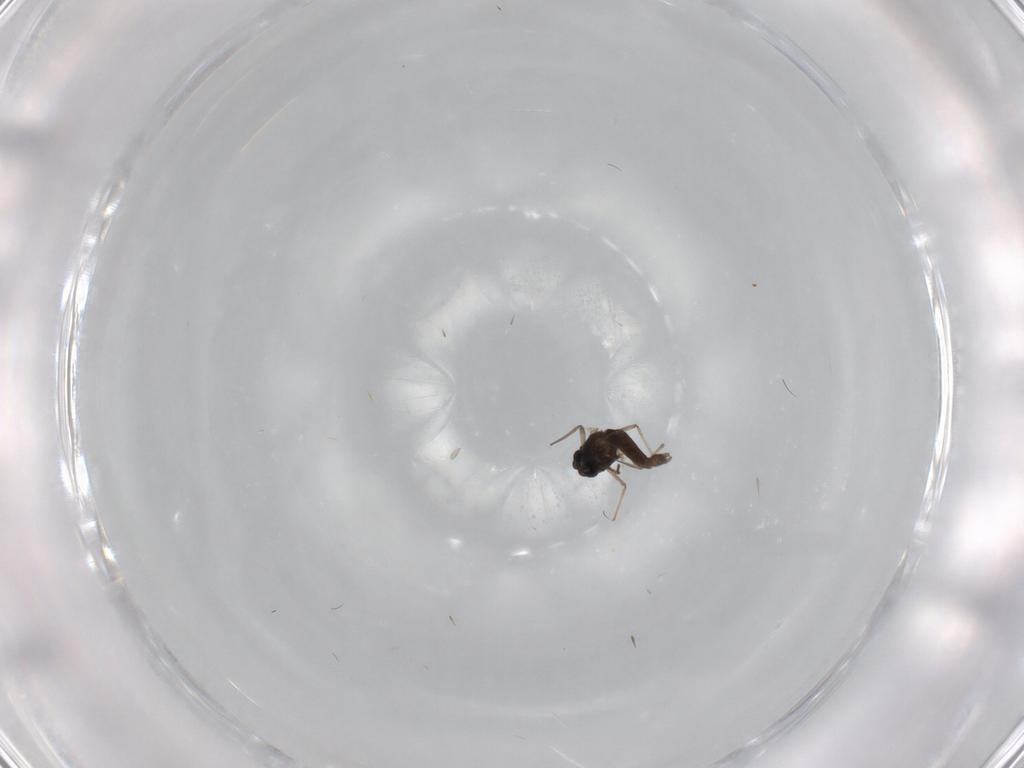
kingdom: Animalia
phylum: Arthropoda
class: Insecta
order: Diptera
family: Chironomidae
